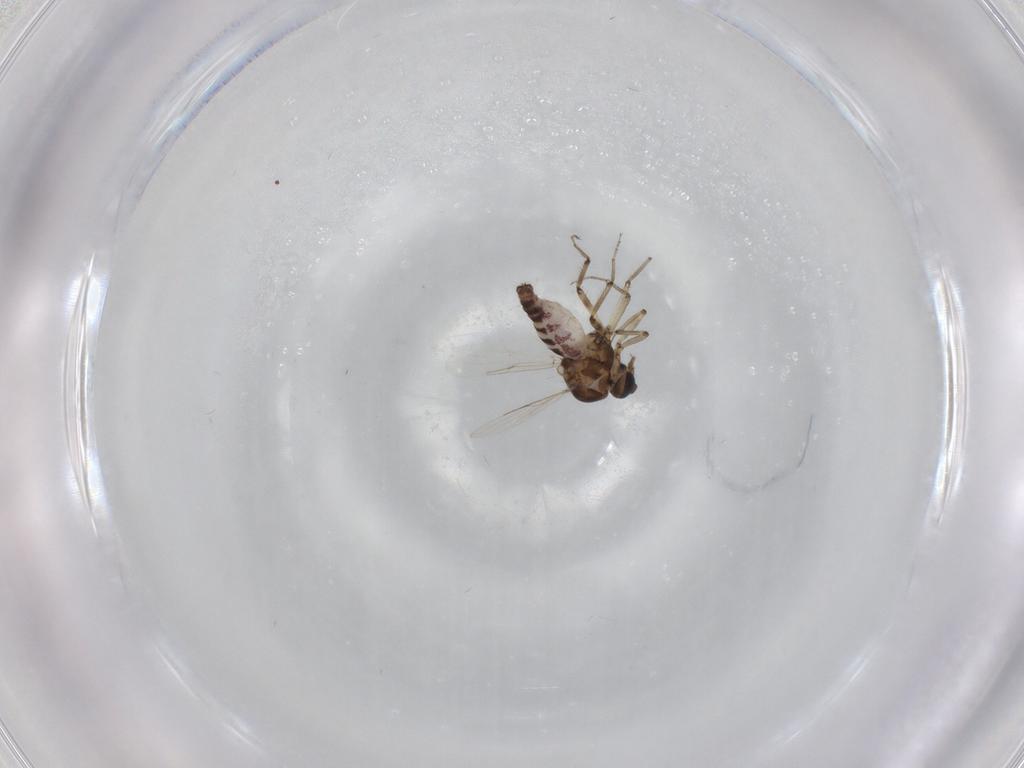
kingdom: Animalia
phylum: Arthropoda
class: Insecta
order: Diptera
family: Ceratopogonidae
